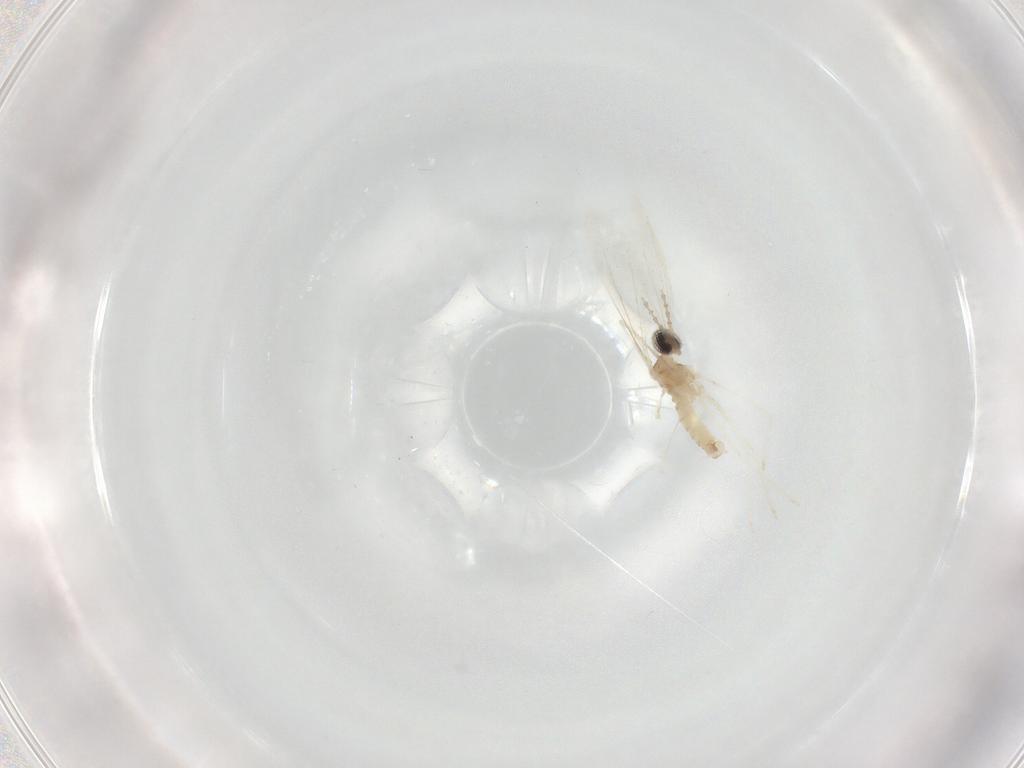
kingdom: Animalia
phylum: Arthropoda
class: Insecta
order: Diptera
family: Cecidomyiidae
